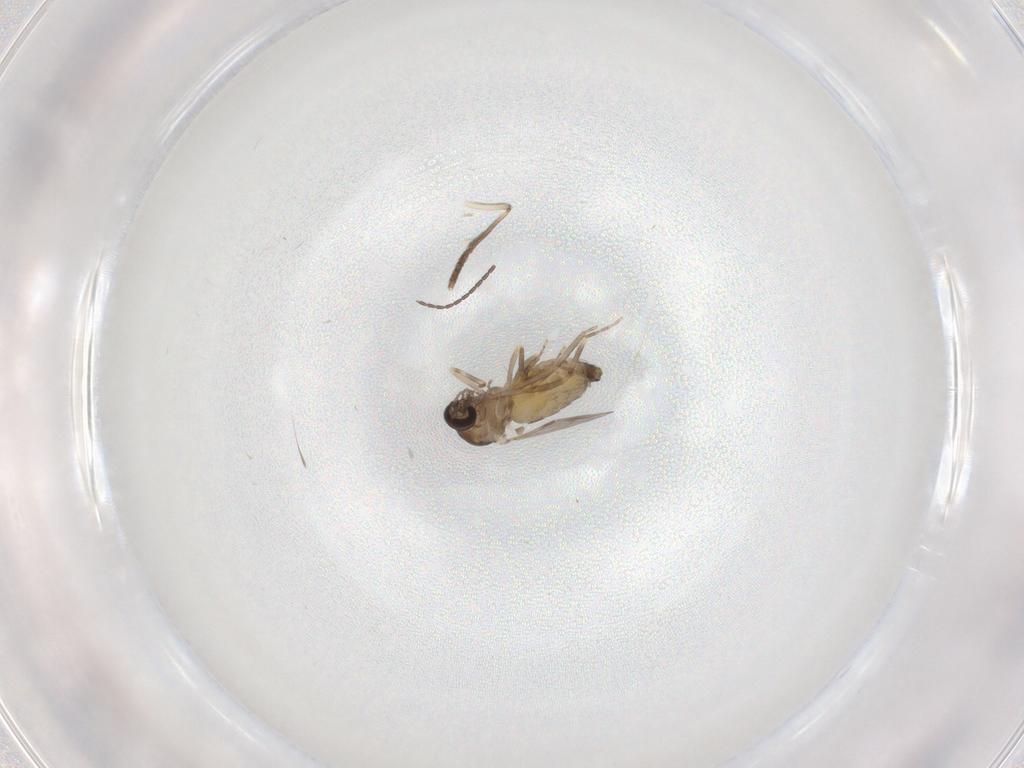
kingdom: Animalia
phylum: Arthropoda
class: Insecta
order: Diptera
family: Ceratopogonidae
